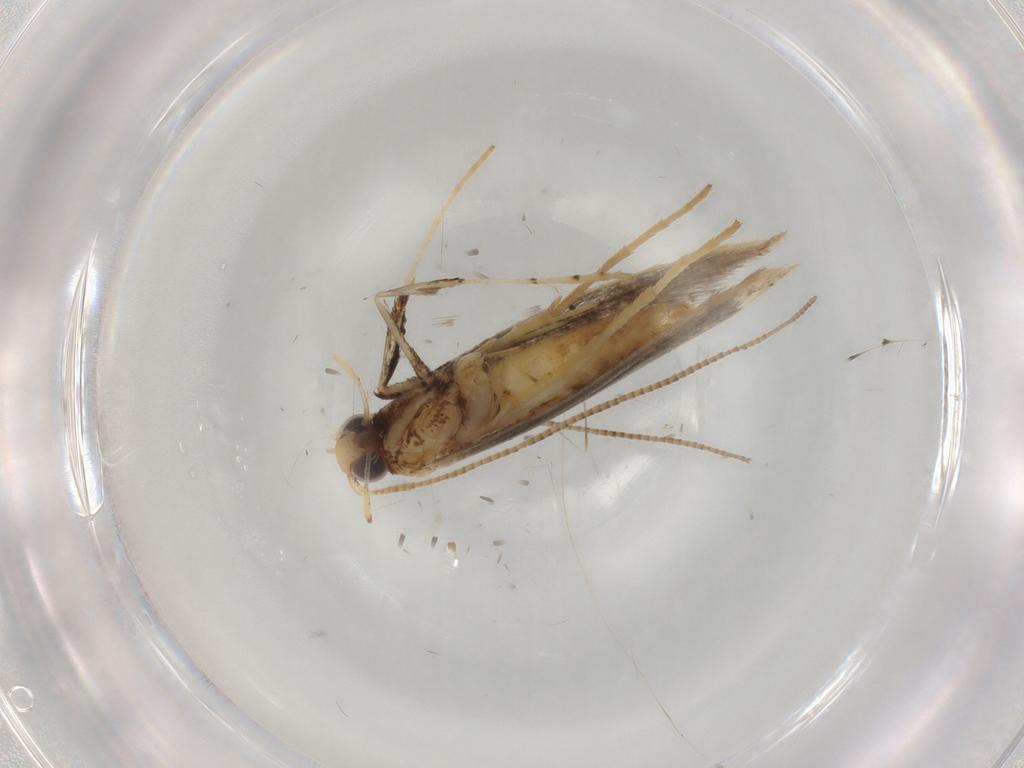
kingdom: Animalia
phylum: Arthropoda
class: Insecta
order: Lepidoptera
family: Gracillariidae
